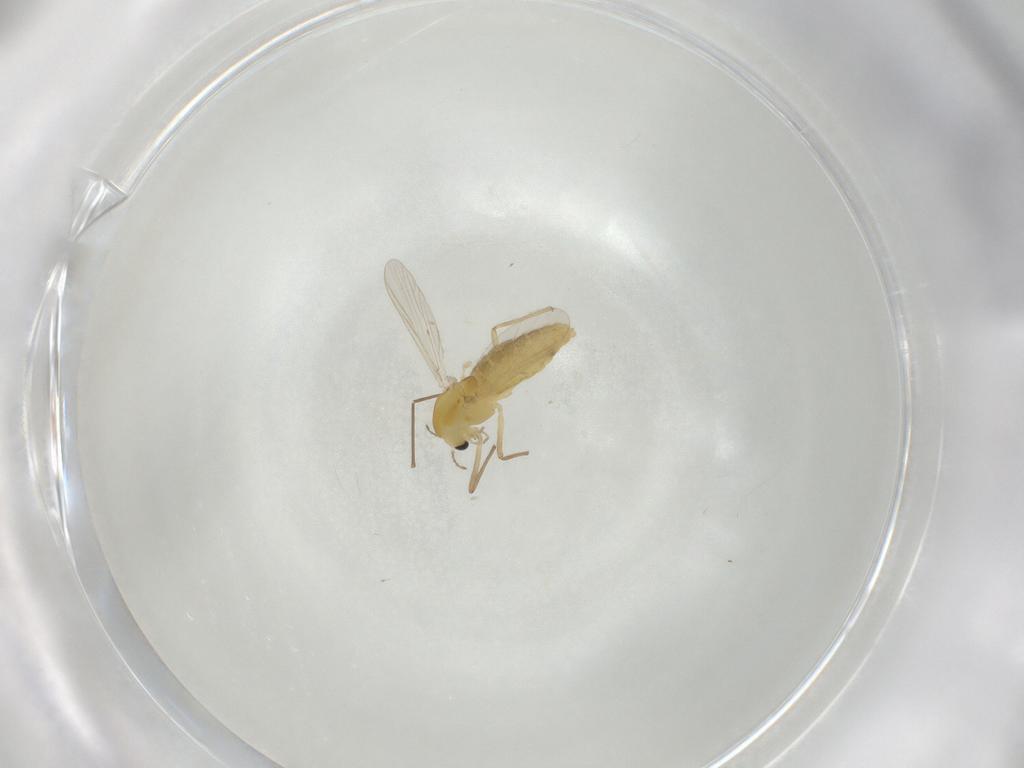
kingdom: Animalia
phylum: Arthropoda
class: Insecta
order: Diptera
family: Chironomidae
